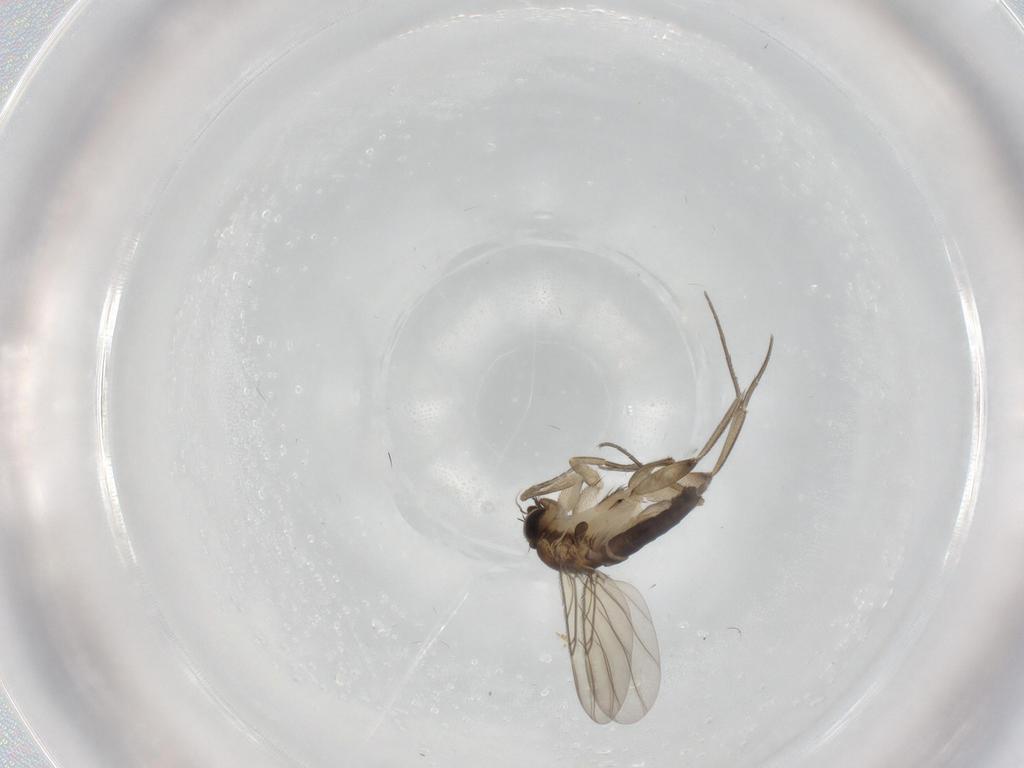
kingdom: Animalia
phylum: Arthropoda
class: Insecta
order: Diptera
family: Phoridae
